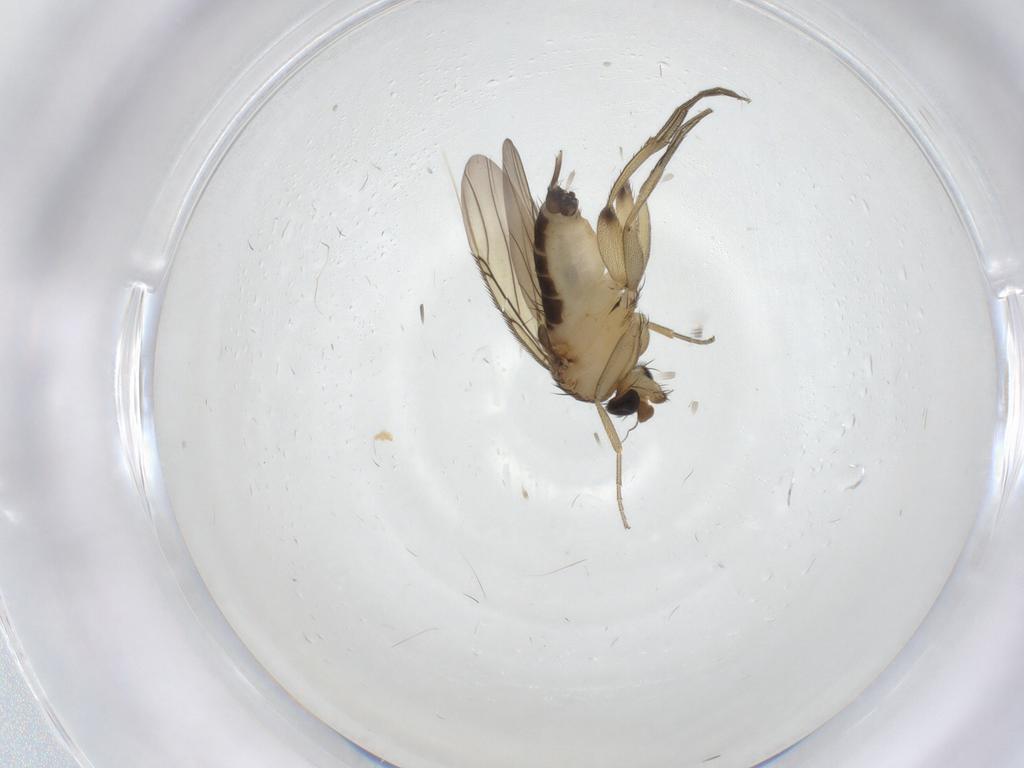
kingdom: Animalia
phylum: Arthropoda
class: Insecta
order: Diptera
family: Phoridae
